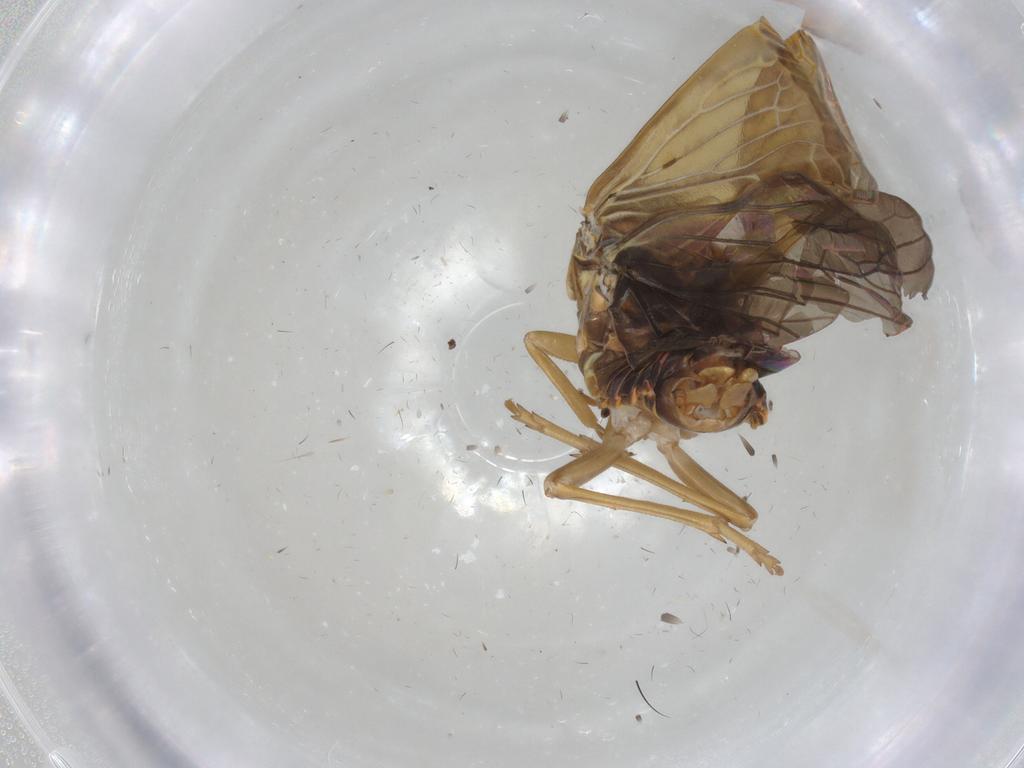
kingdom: Animalia
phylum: Arthropoda
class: Insecta
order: Hemiptera
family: Achilidae
